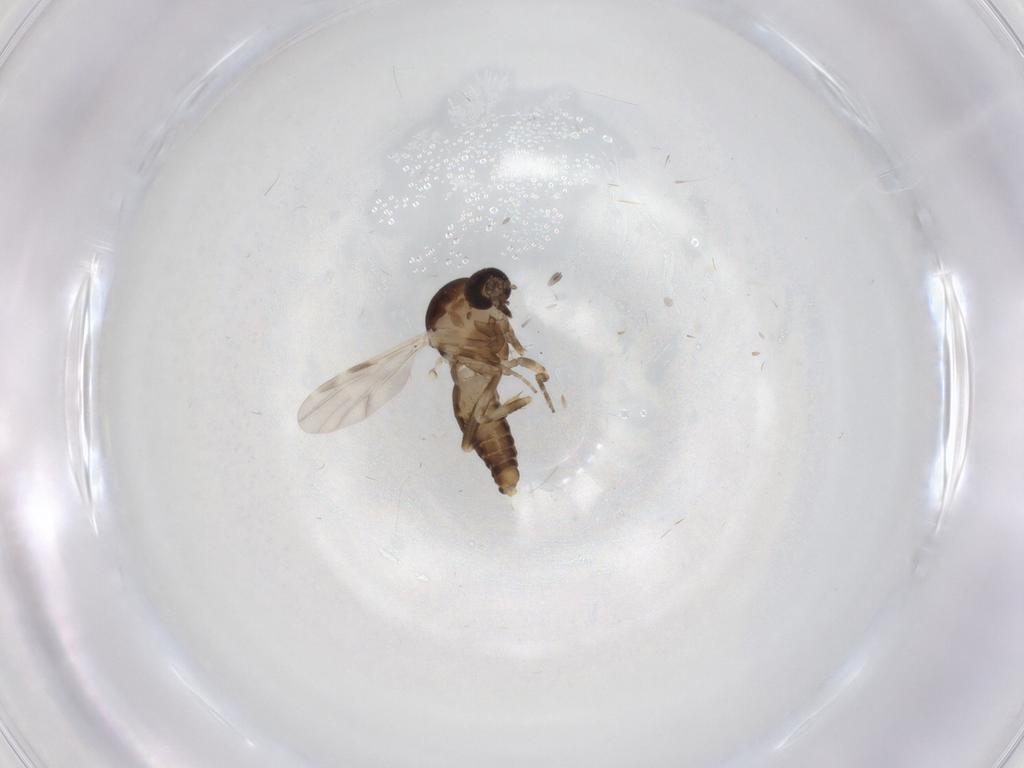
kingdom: Animalia
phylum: Arthropoda
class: Insecta
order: Diptera
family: Ceratopogonidae
